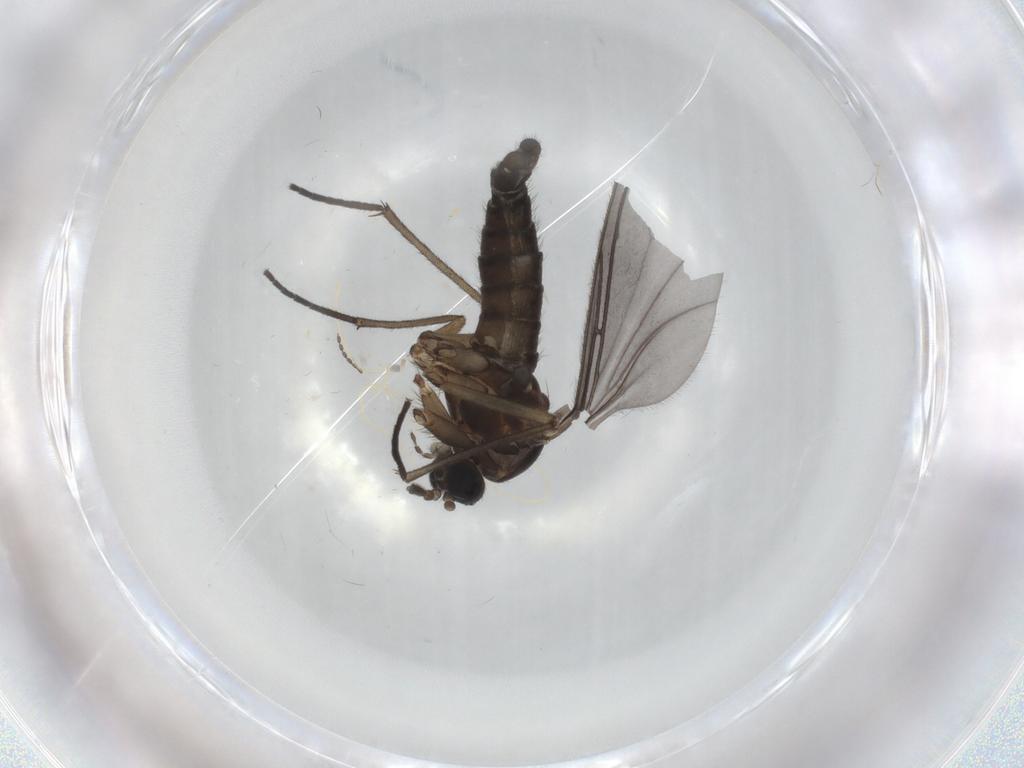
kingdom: Animalia
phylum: Arthropoda
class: Insecta
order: Diptera
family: Sciaridae
